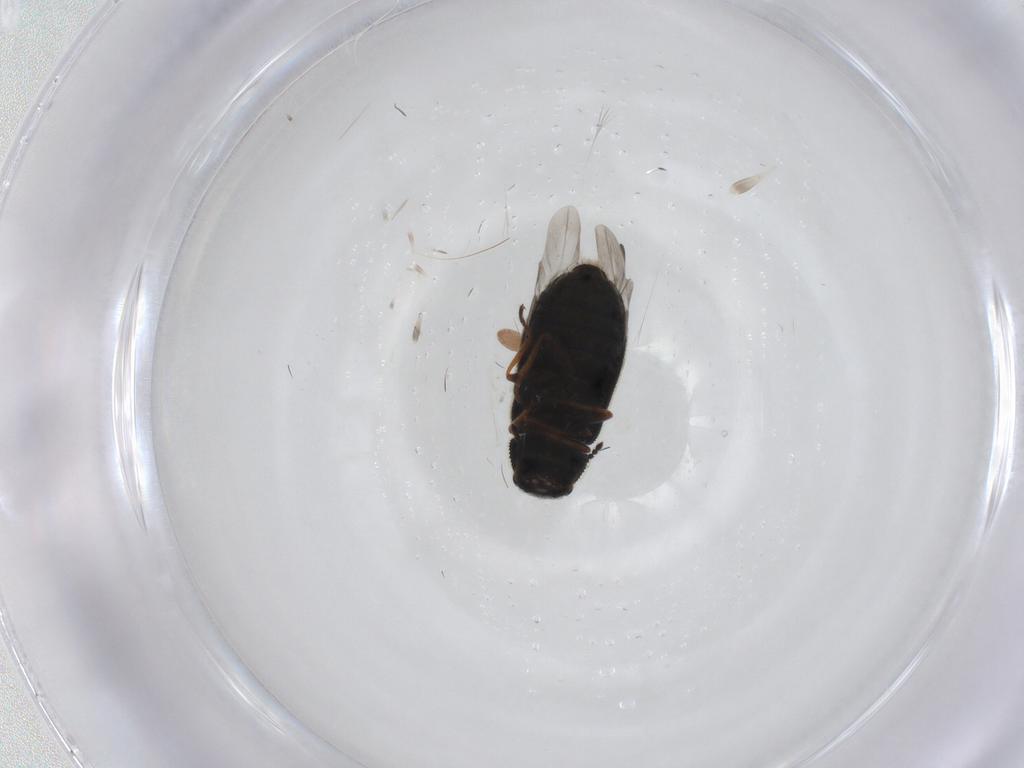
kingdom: Animalia
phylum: Arthropoda
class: Insecta
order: Coleoptera
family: Melyridae
